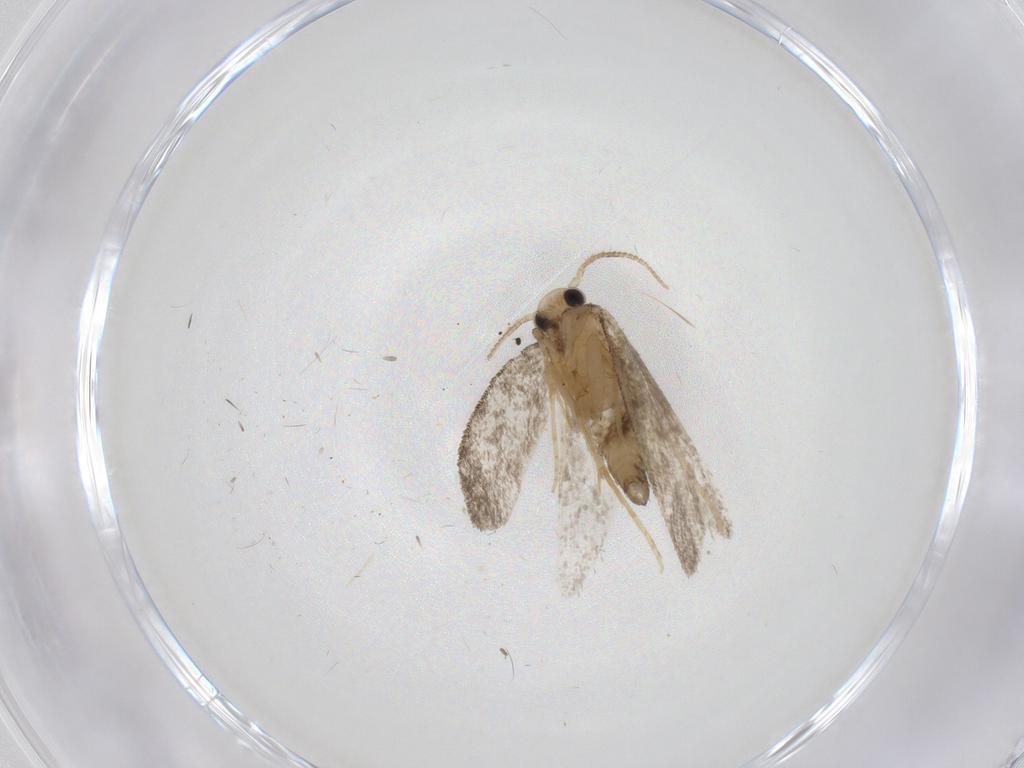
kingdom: Animalia
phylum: Arthropoda
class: Insecta
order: Lepidoptera
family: Psychidae
